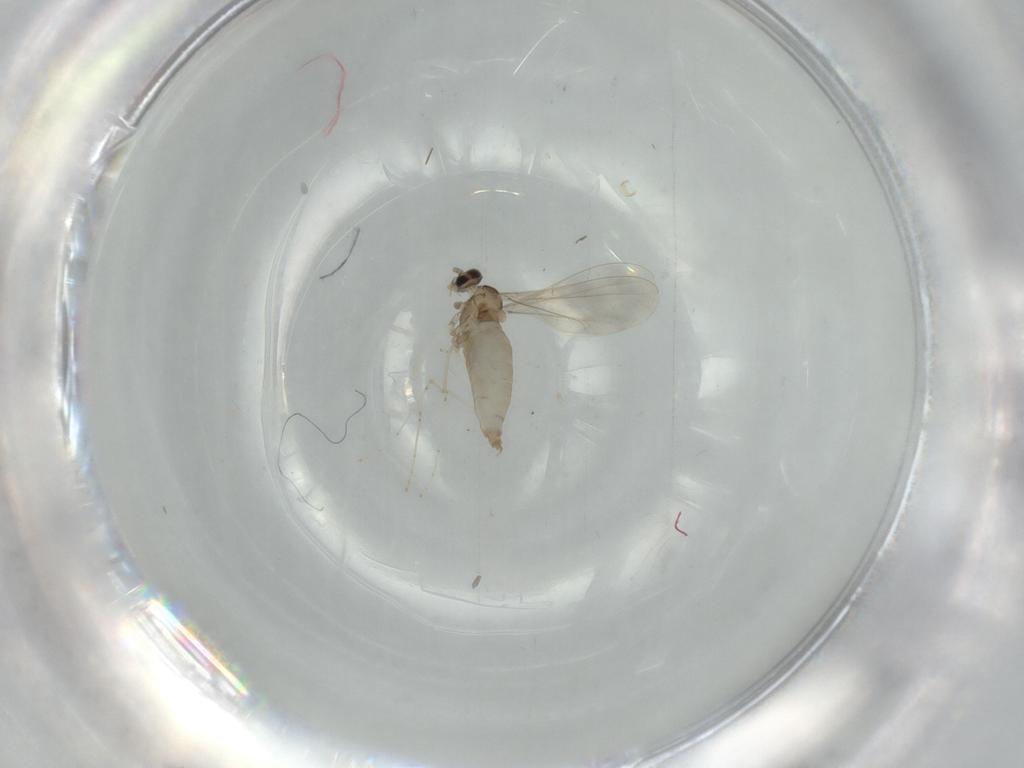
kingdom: Animalia
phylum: Arthropoda
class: Insecta
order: Diptera
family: Cecidomyiidae
